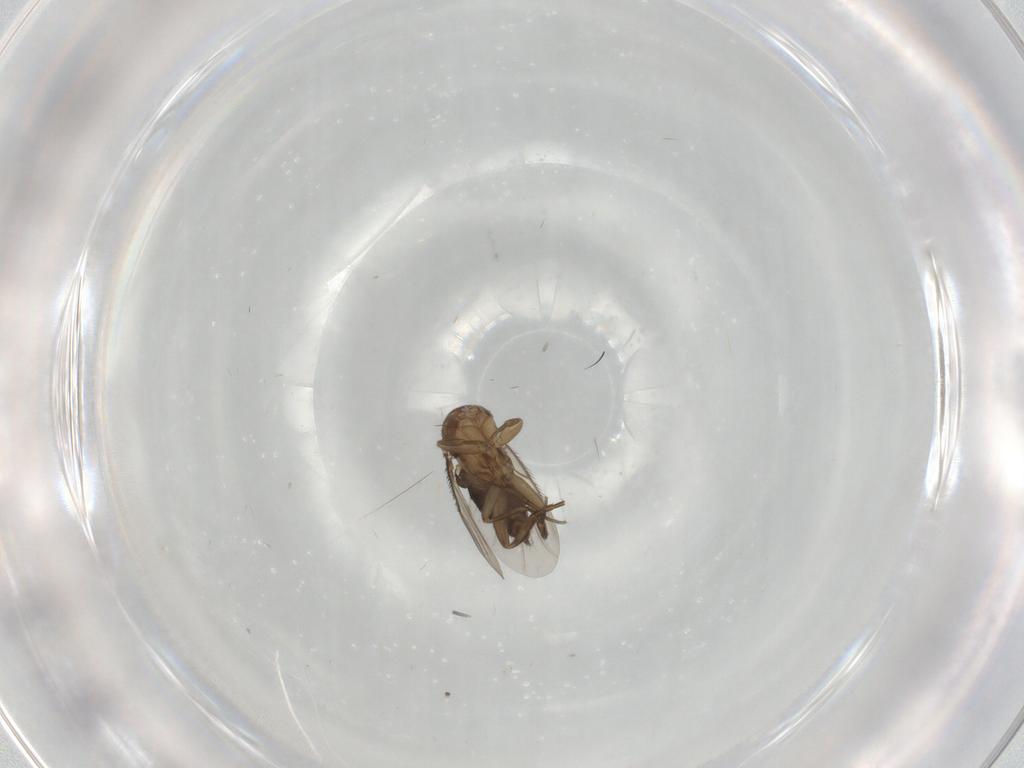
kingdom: Animalia
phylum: Arthropoda
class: Insecta
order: Diptera
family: Phoridae
